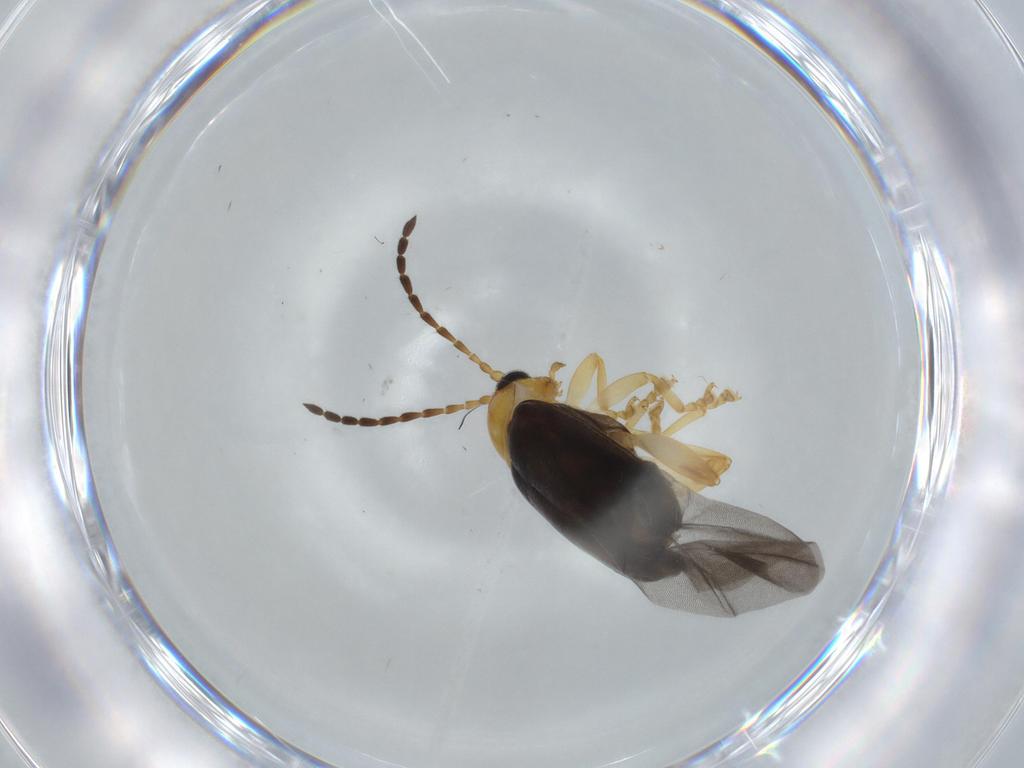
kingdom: Animalia
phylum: Arthropoda
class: Insecta
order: Coleoptera
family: Chrysomelidae
